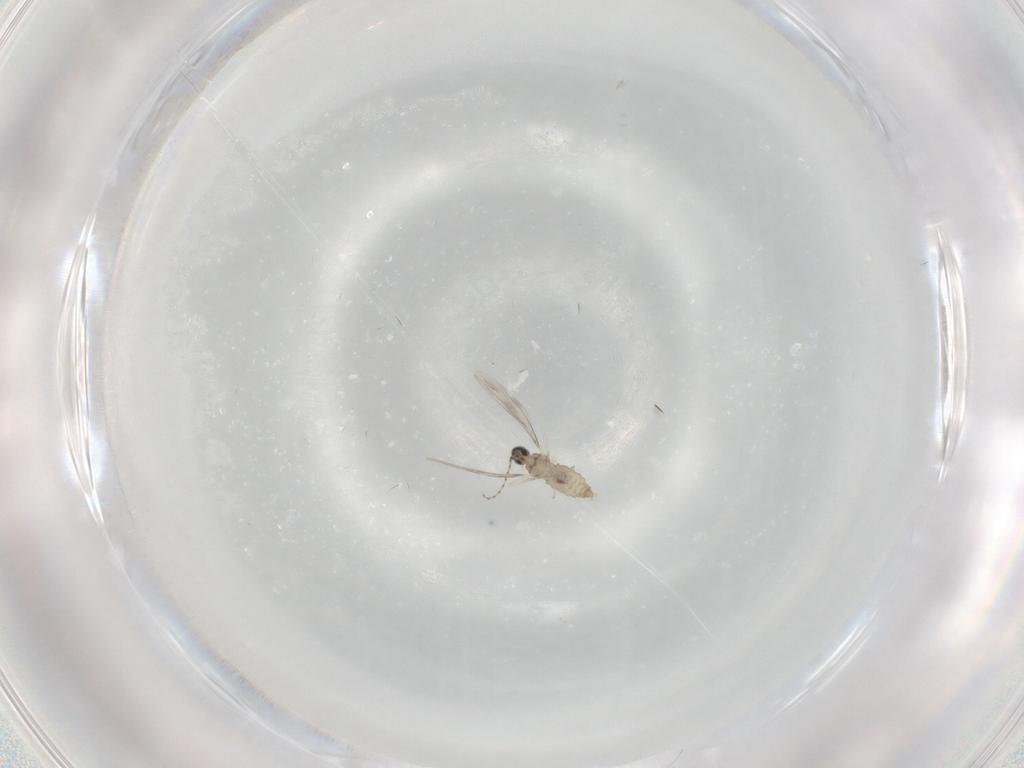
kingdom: Animalia
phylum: Arthropoda
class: Insecta
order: Diptera
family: Cecidomyiidae
